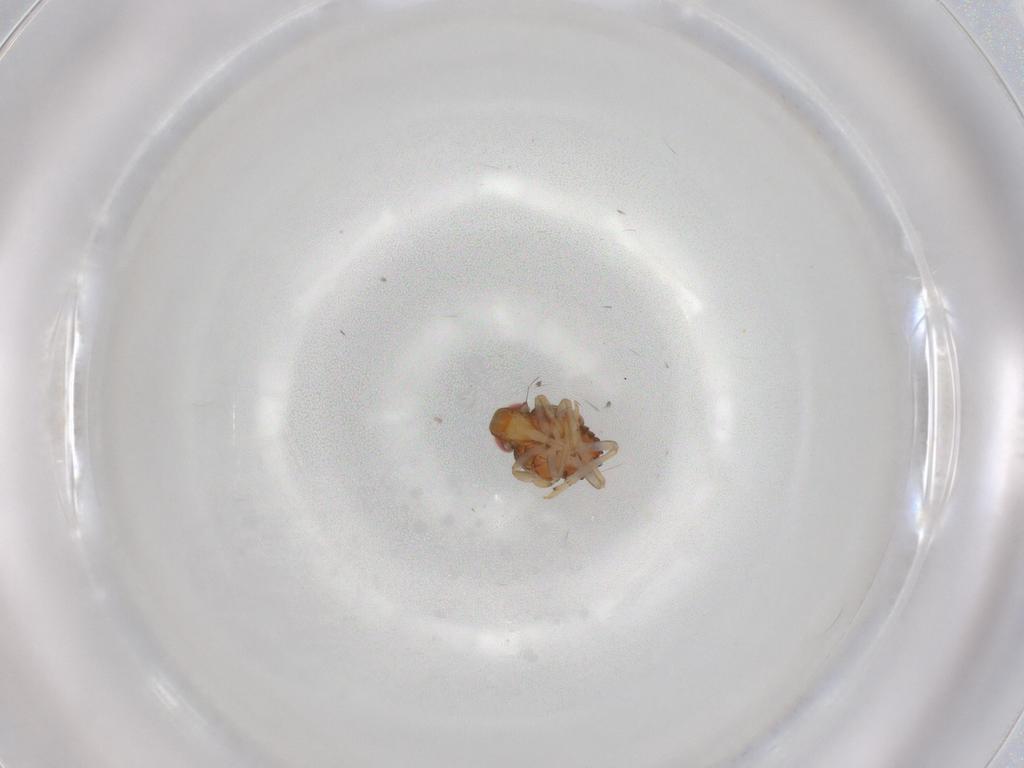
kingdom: Animalia
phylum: Arthropoda
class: Insecta
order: Hemiptera
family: Issidae
